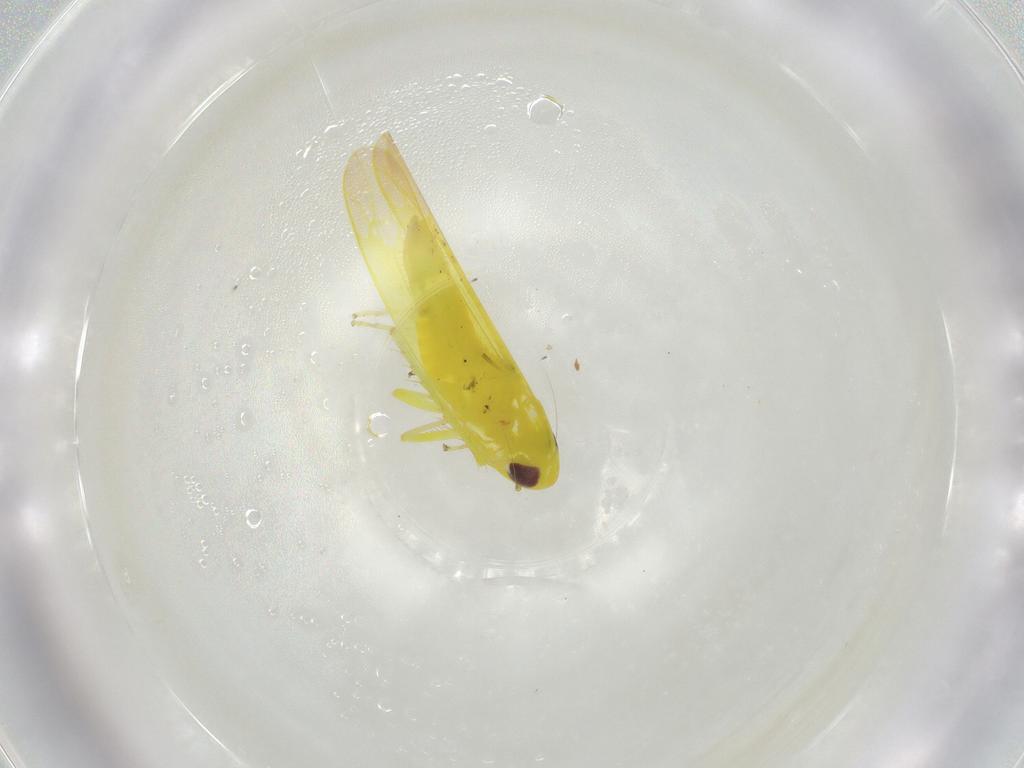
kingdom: Animalia
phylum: Arthropoda
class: Insecta
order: Hemiptera
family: Cicadellidae
